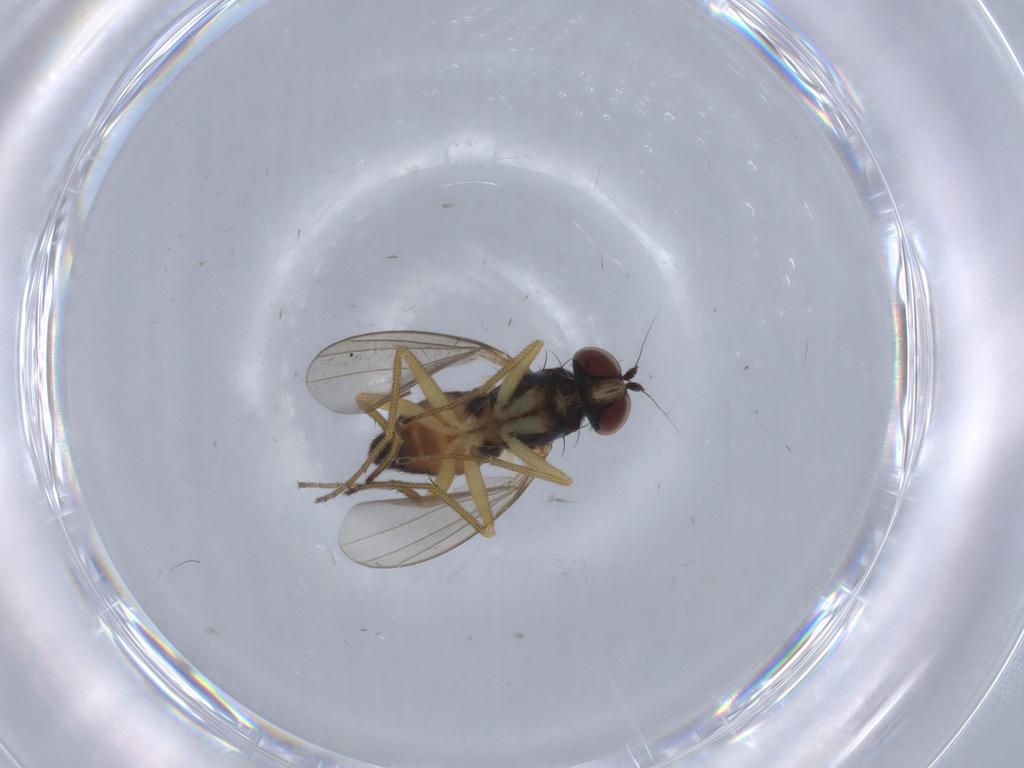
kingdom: Animalia
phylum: Arthropoda
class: Insecta
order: Diptera
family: Dolichopodidae
